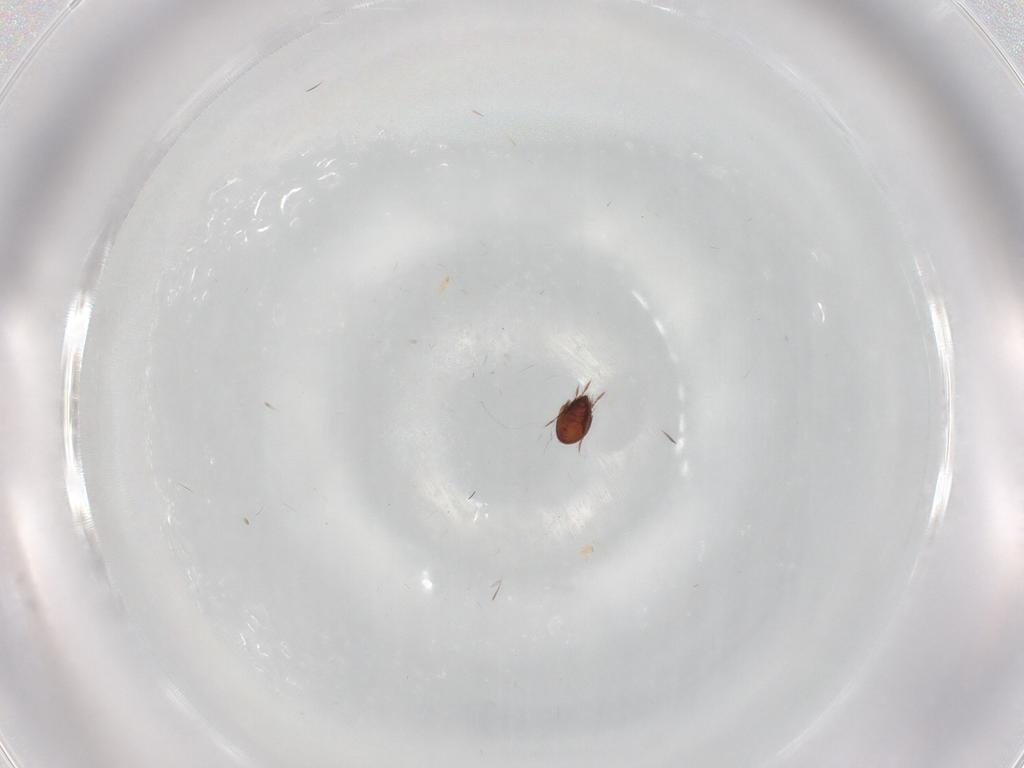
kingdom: Animalia
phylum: Arthropoda
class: Arachnida
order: Sarcoptiformes
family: Ceratozetidae
